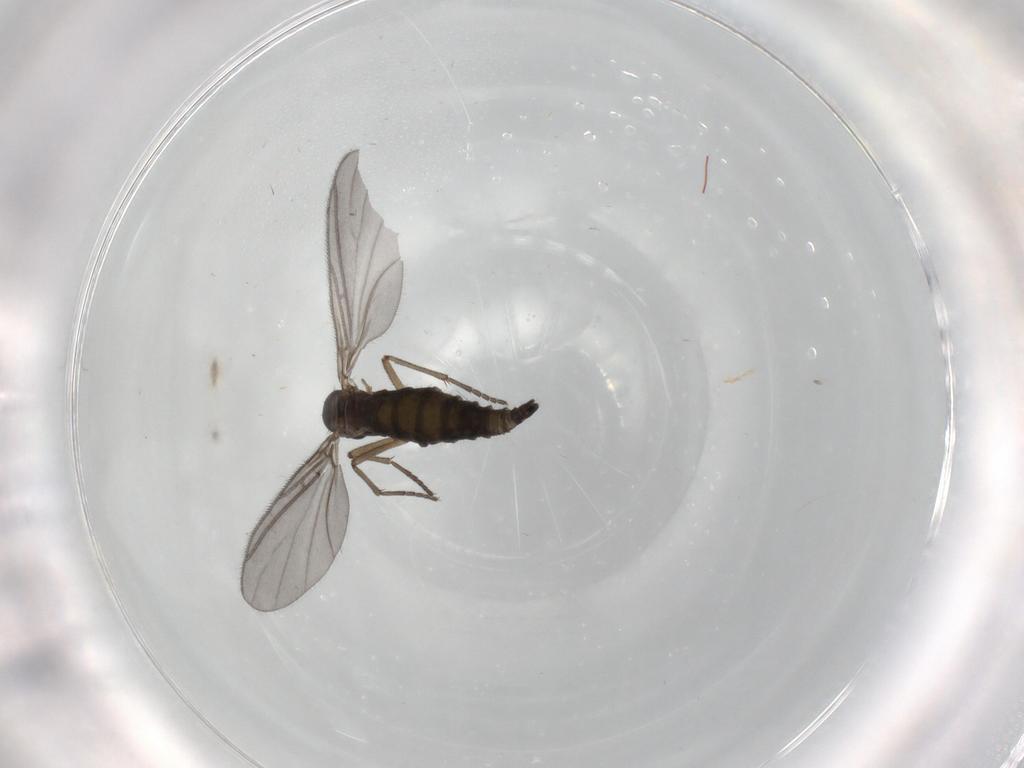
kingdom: Animalia
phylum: Arthropoda
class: Insecta
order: Diptera
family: Sciaridae
